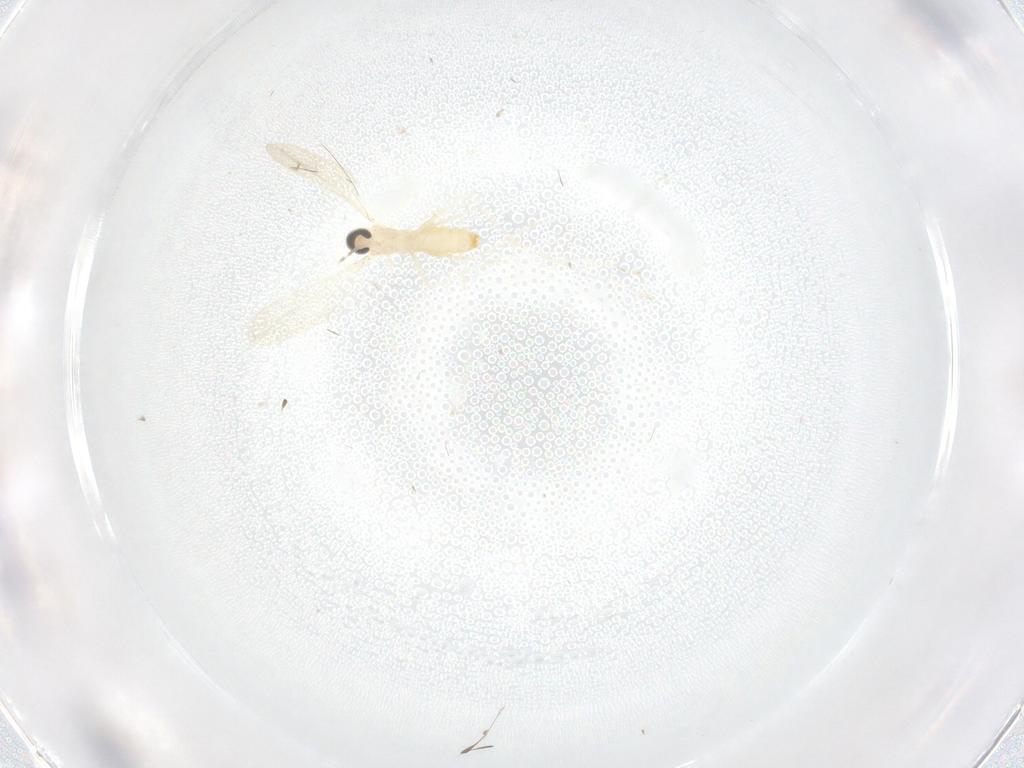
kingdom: Animalia
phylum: Arthropoda
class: Insecta
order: Diptera
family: Cecidomyiidae
